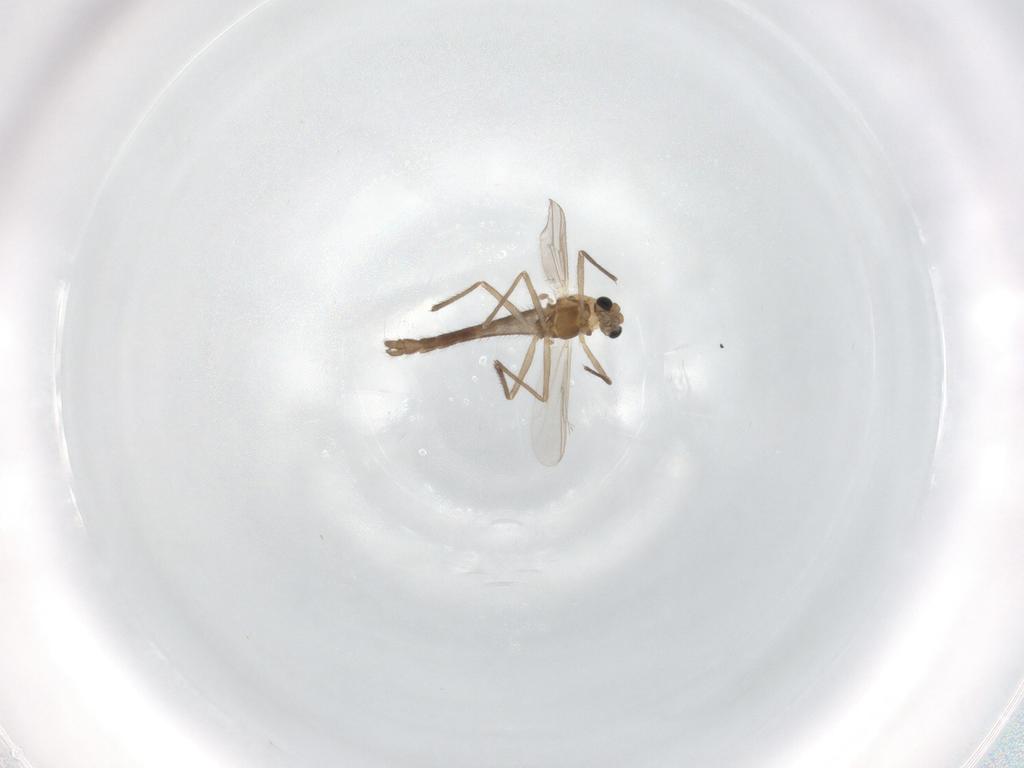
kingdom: Animalia
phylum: Arthropoda
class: Insecta
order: Diptera
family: Chironomidae
